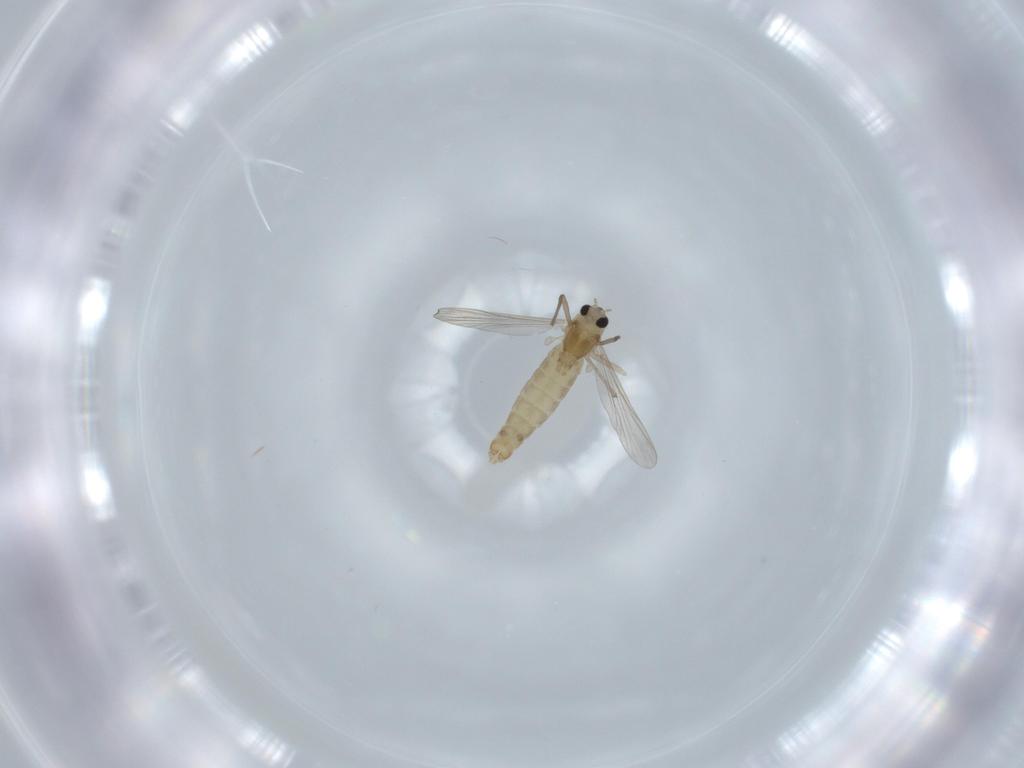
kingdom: Animalia
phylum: Arthropoda
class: Insecta
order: Diptera
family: Chironomidae
